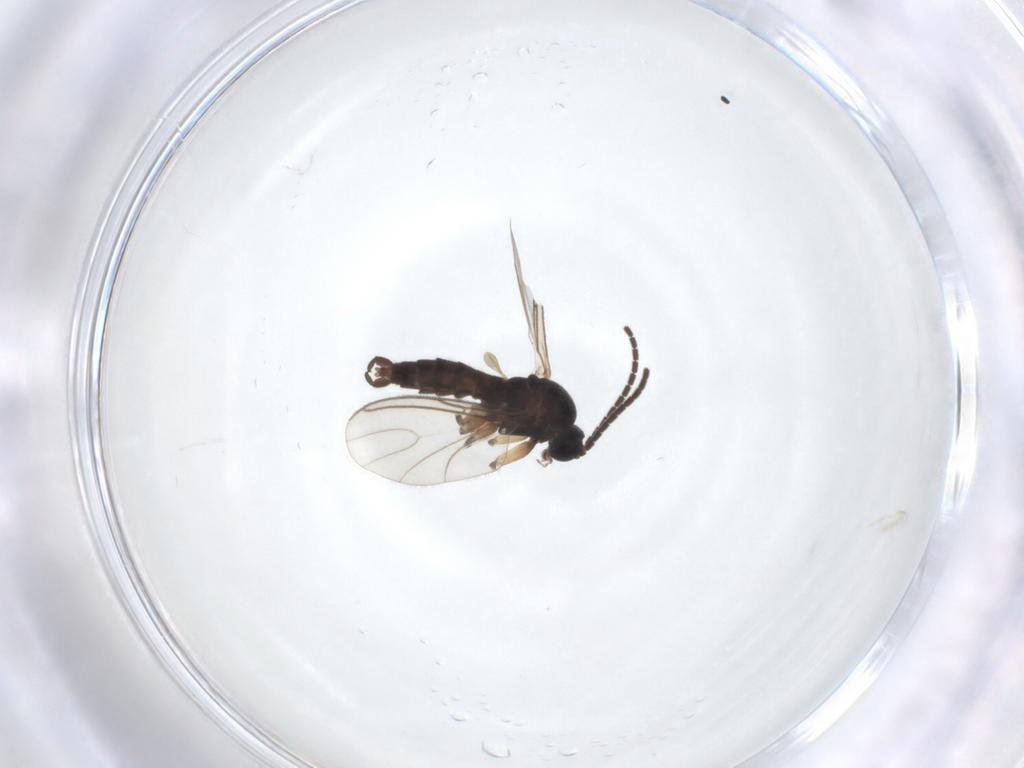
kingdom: Animalia
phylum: Arthropoda
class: Insecta
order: Diptera
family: Sciaridae
